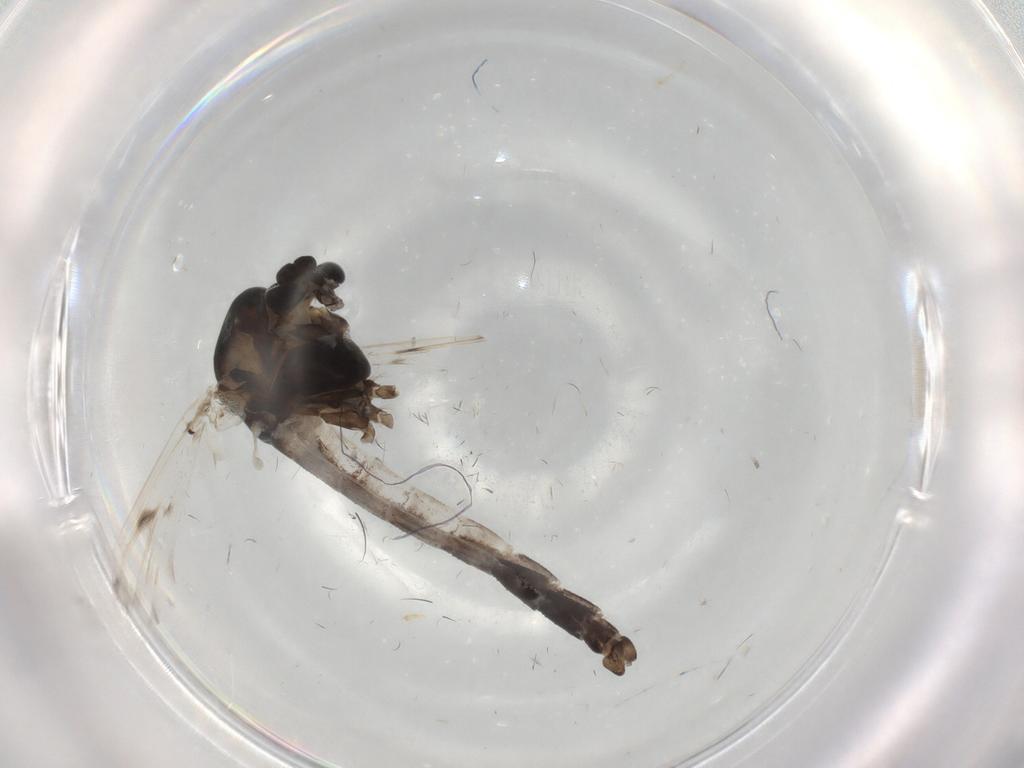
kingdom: Animalia
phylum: Arthropoda
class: Insecta
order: Diptera
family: Chironomidae
